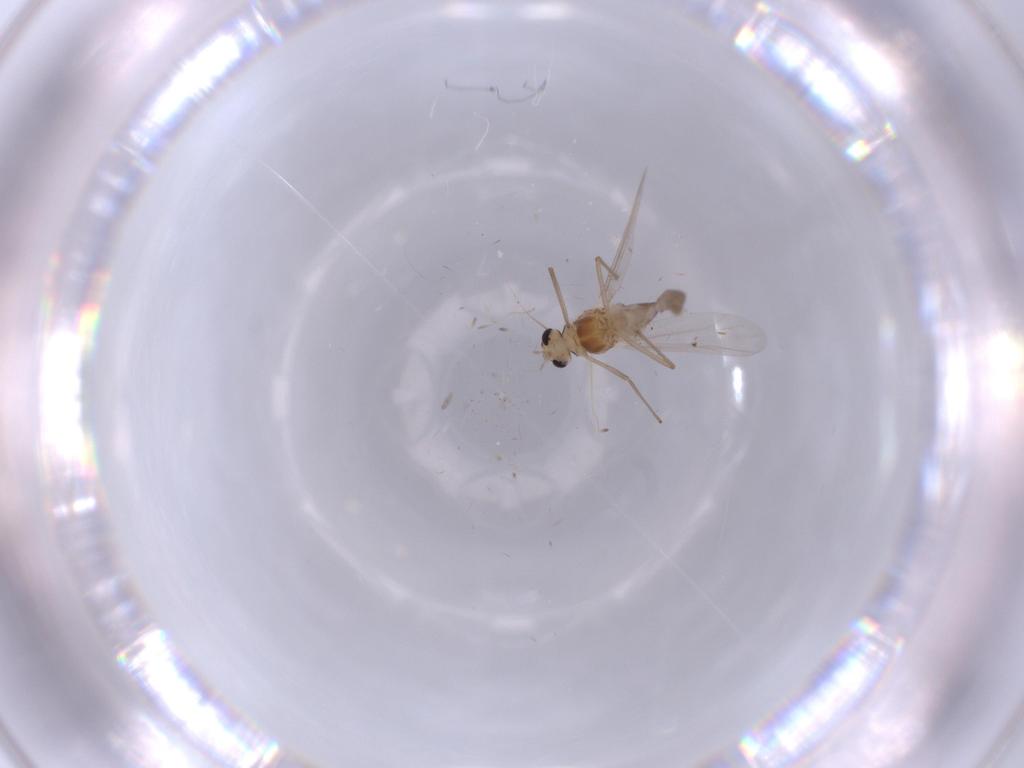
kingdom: Animalia
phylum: Arthropoda
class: Insecta
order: Diptera
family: Chironomidae
